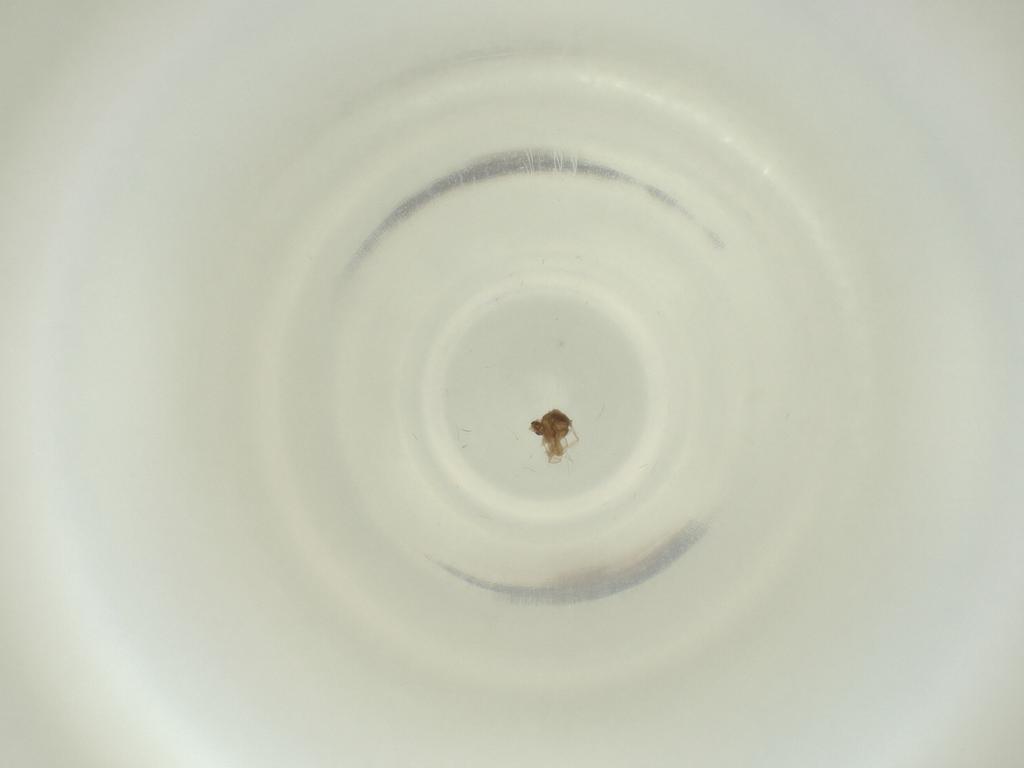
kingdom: Animalia
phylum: Arthropoda
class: Insecta
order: Diptera
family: Cecidomyiidae
